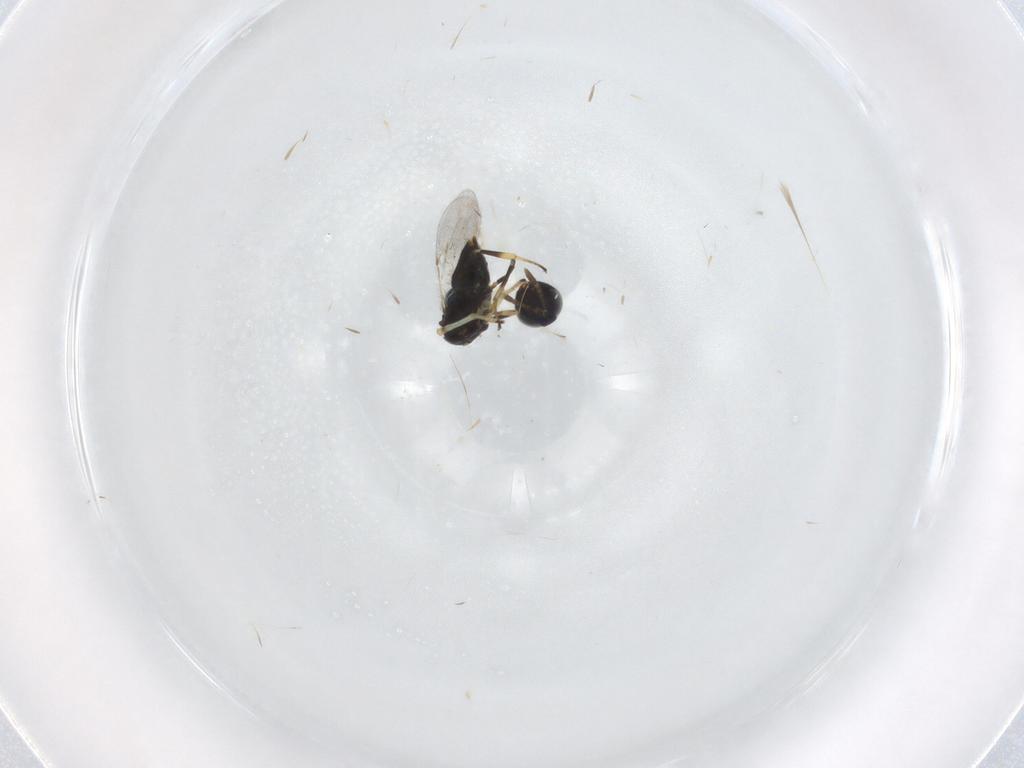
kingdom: Animalia
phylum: Arthropoda
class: Insecta
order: Hymenoptera
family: Encyrtidae
